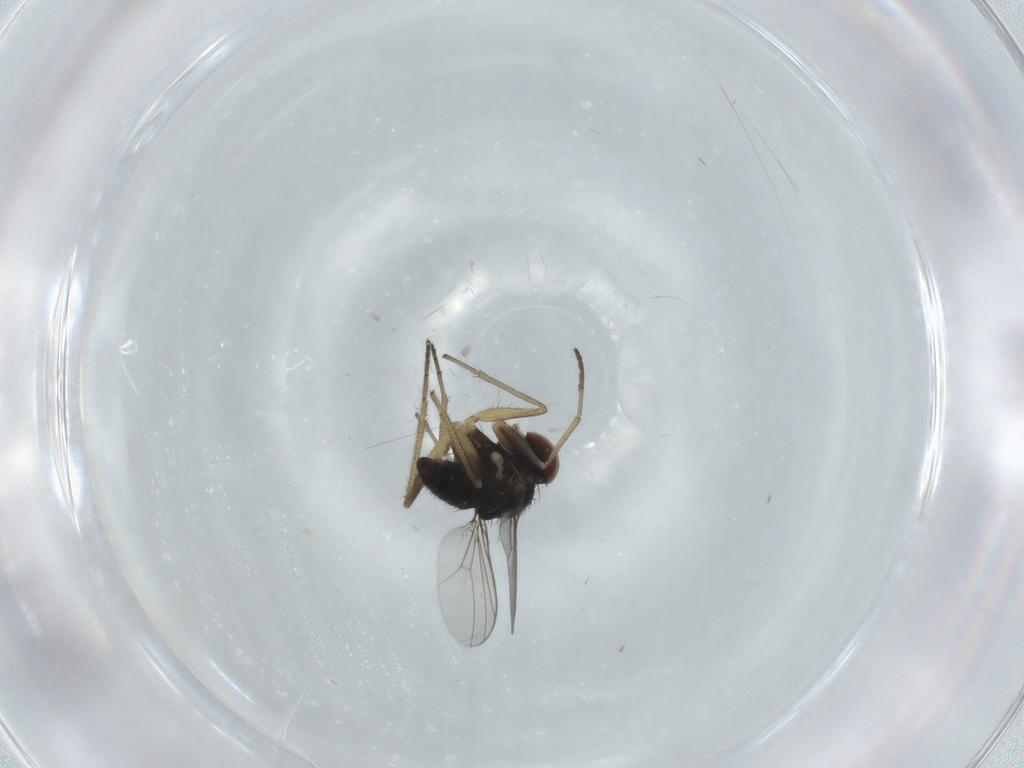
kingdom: Animalia
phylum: Arthropoda
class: Insecta
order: Diptera
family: Dolichopodidae
